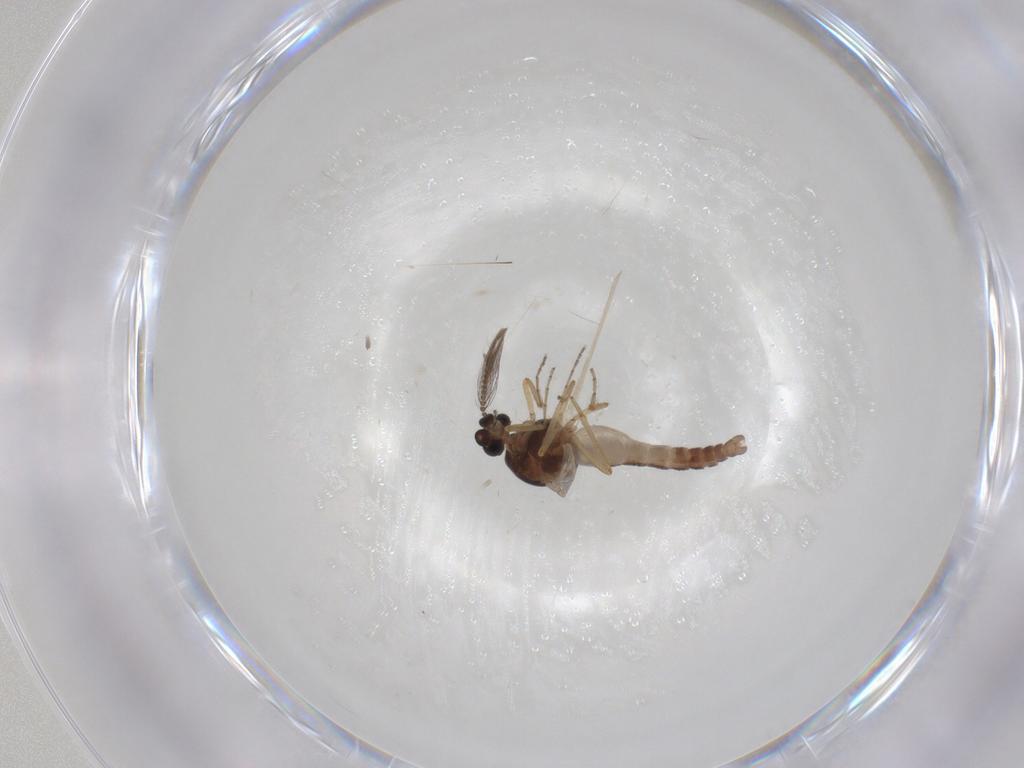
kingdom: Animalia
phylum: Arthropoda
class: Insecta
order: Diptera
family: Ceratopogonidae
